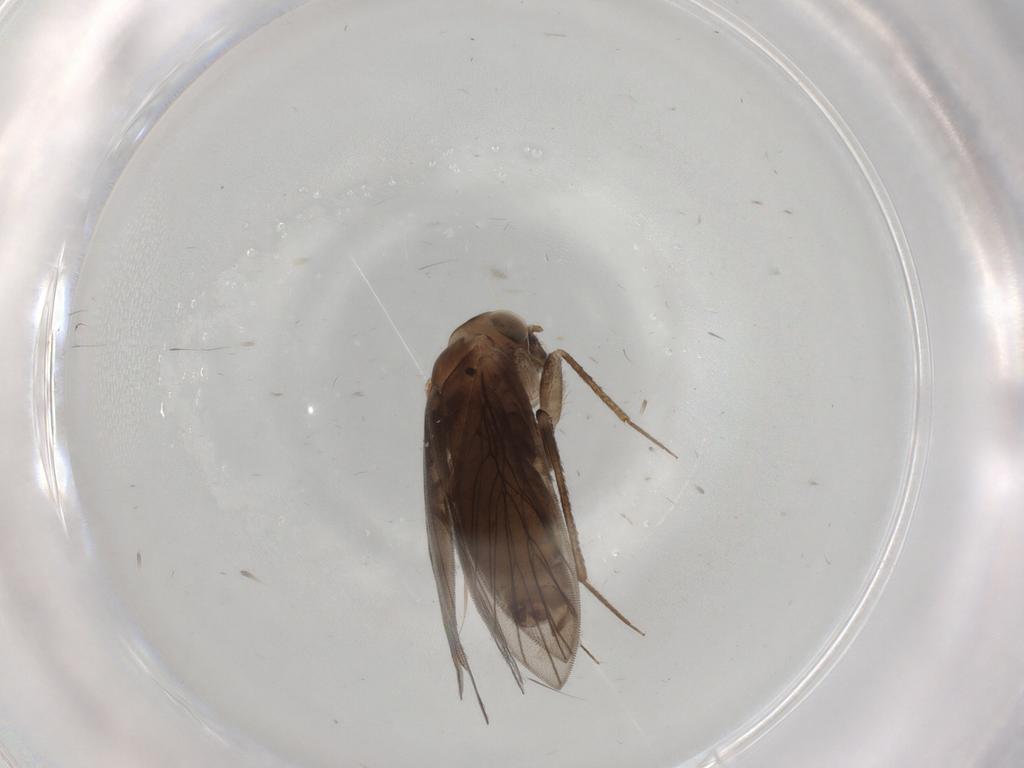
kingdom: Animalia
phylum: Arthropoda
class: Insecta
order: Psocodea
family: Lepidopsocidae
